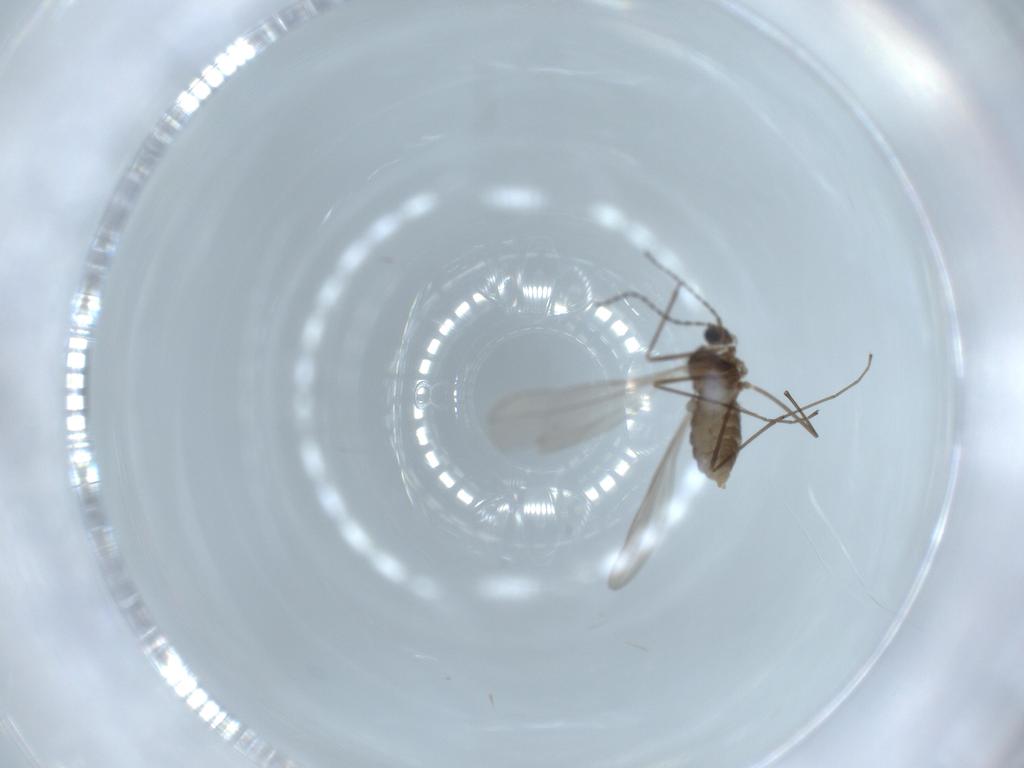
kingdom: Animalia
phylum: Arthropoda
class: Insecta
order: Diptera
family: Cecidomyiidae
